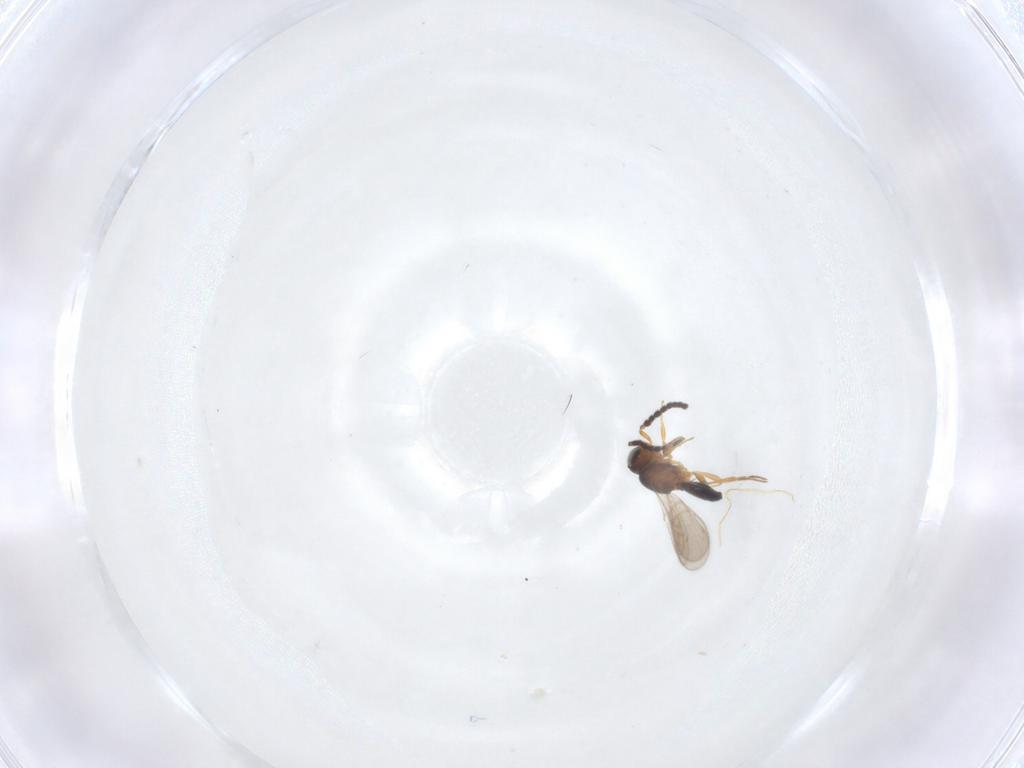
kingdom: Animalia
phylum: Arthropoda
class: Insecta
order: Hymenoptera
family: Scelionidae
